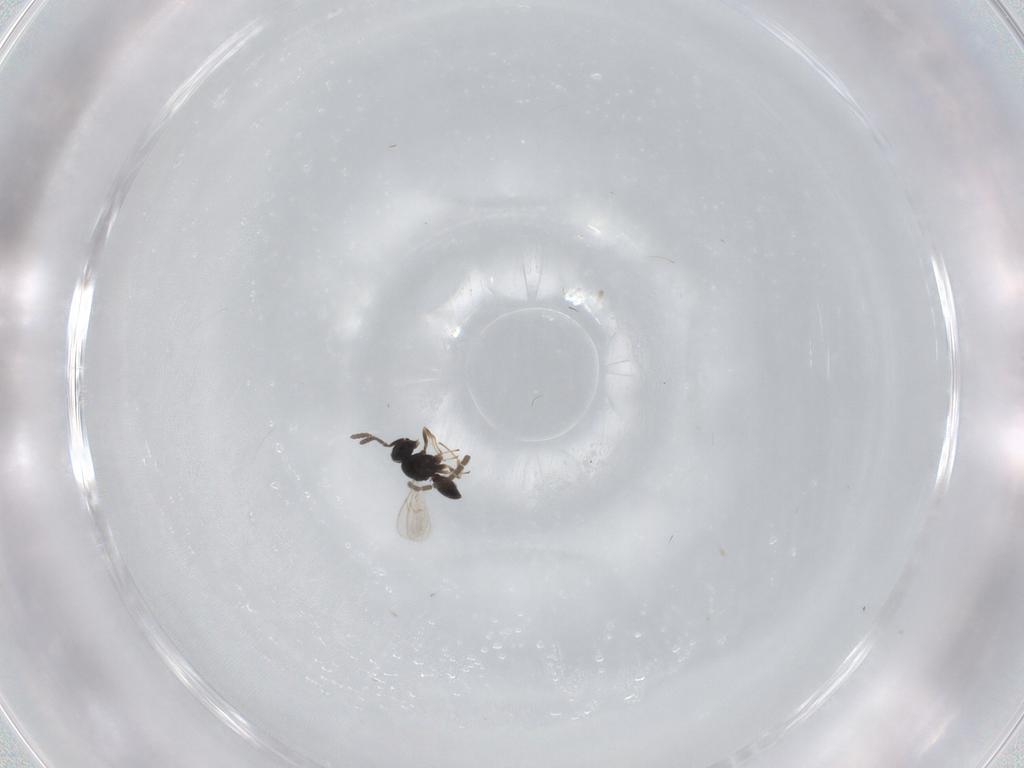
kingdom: Animalia
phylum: Arthropoda
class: Insecta
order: Hymenoptera
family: Scelionidae
